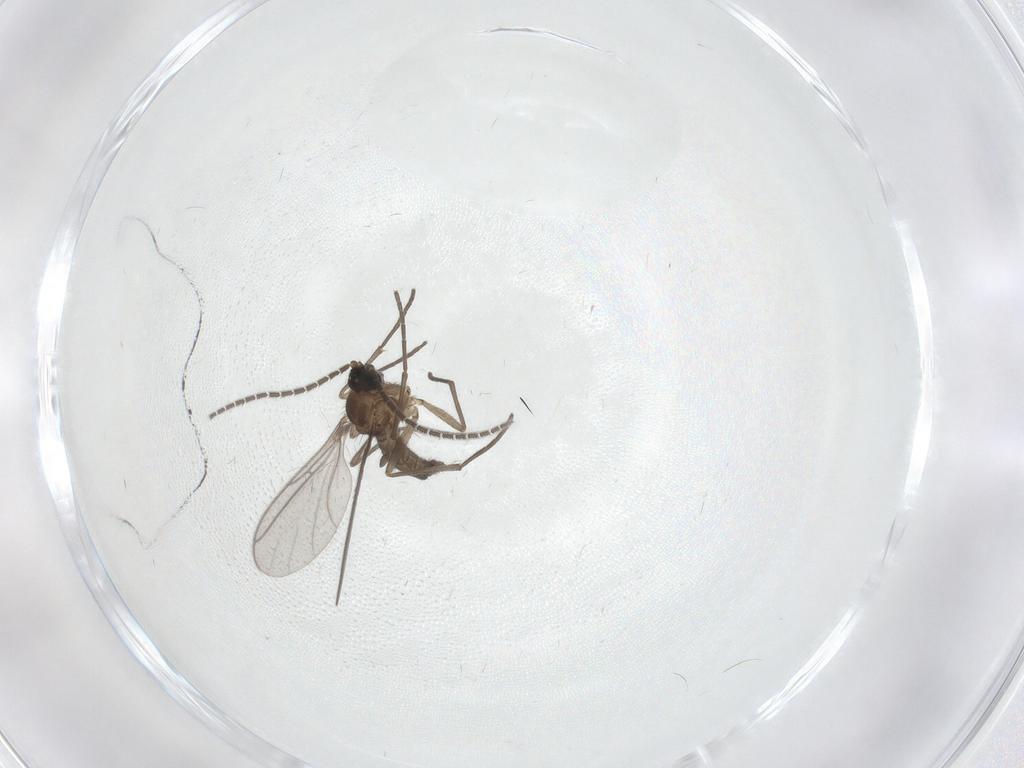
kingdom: Animalia
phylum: Arthropoda
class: Insecta
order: Diptera
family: Sciaridae
